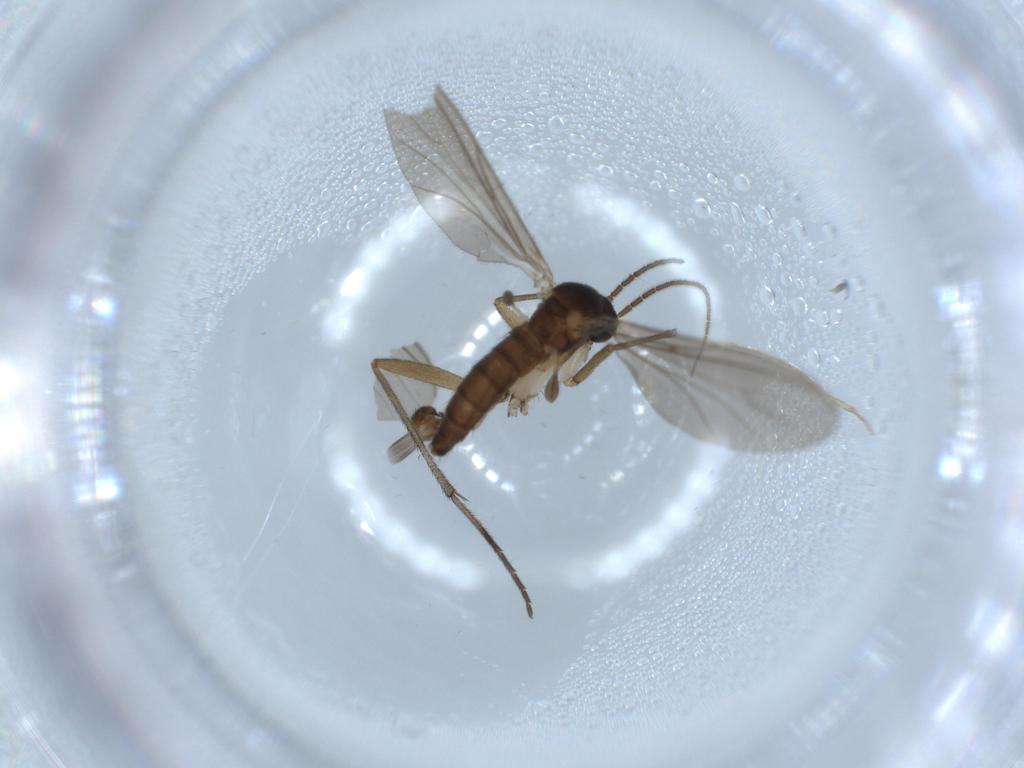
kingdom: Animalia
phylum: Arthropoda
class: Insecta
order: Diptera
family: Sciaridae
